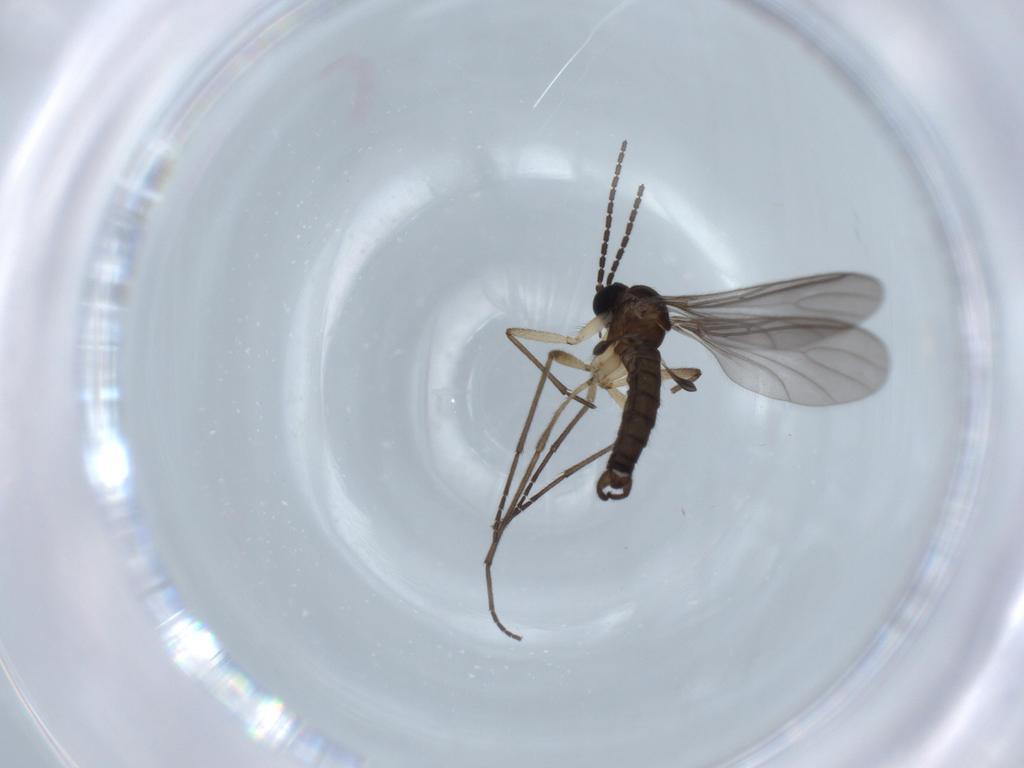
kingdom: Animalia
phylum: Arthropoda
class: Insecta
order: Diptera
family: Sciaridae
